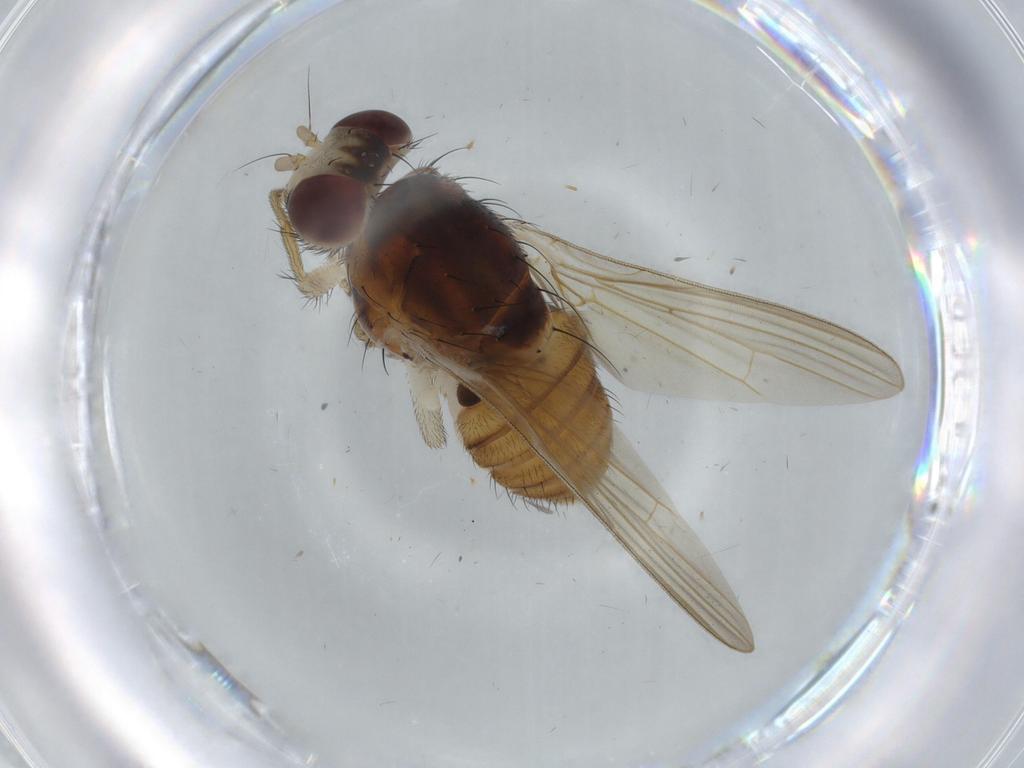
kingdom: Animalia
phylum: Arthropoda
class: Insecta
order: Diptera
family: Lauxaniidae
